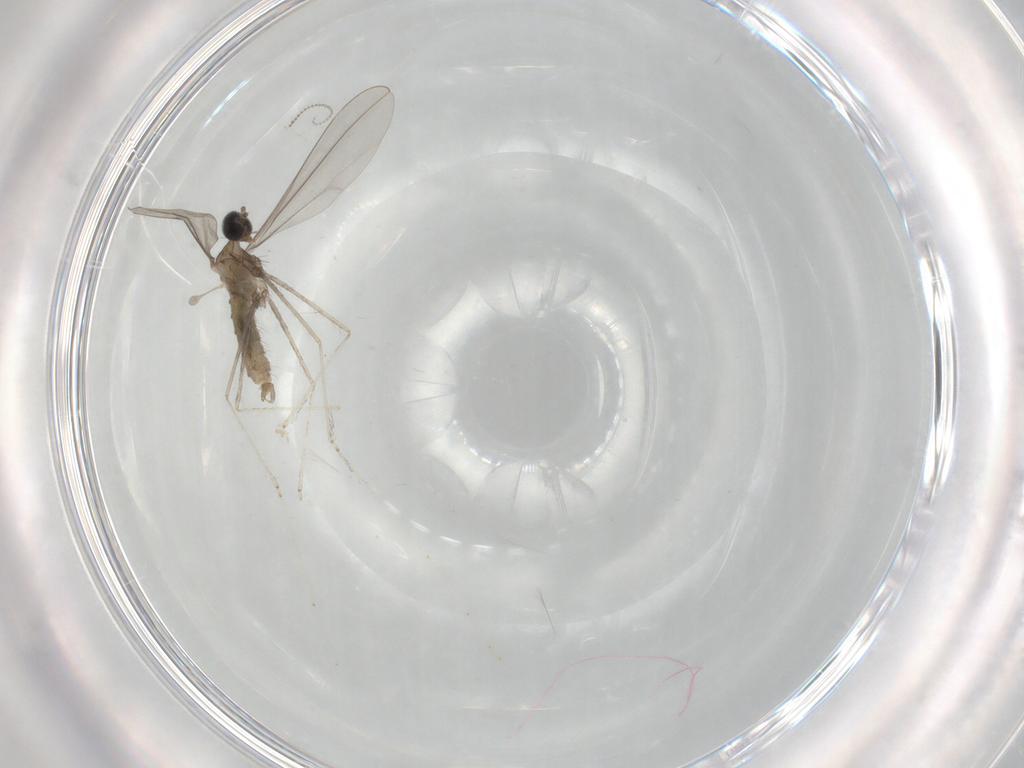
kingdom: Animalia
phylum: Arthropoda
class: Insecta
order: Diptera
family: Cecidomyiidae
